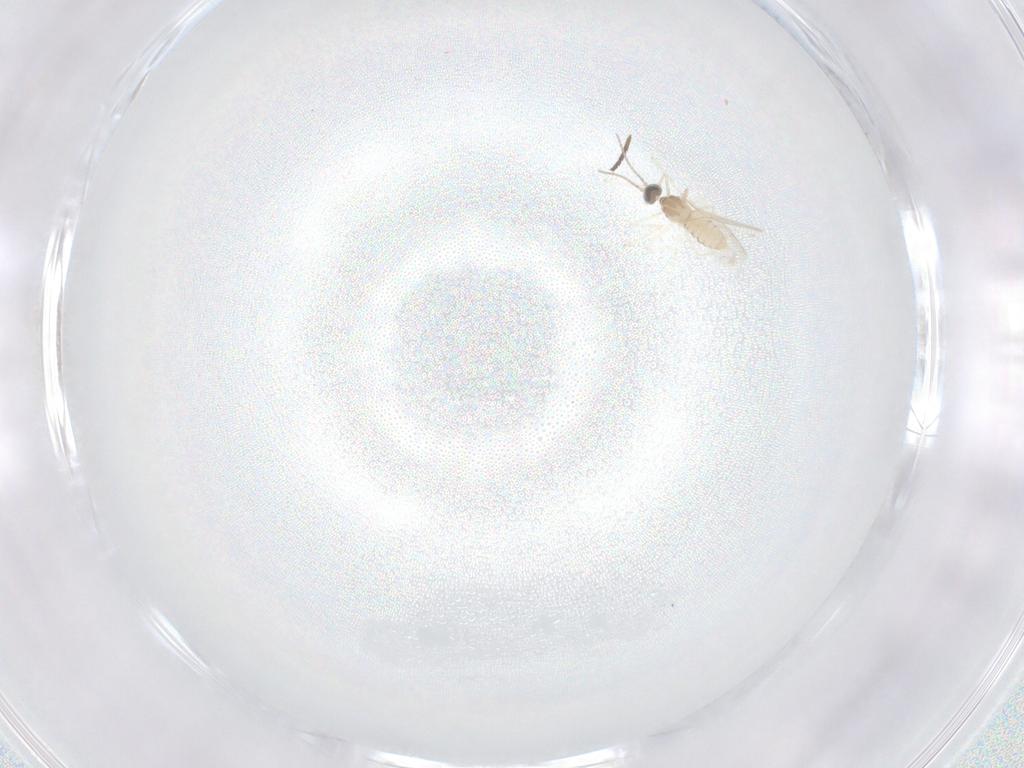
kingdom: Animalia
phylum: Arthropoda
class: Insecta
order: Diptera
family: Cecidomyiidae
